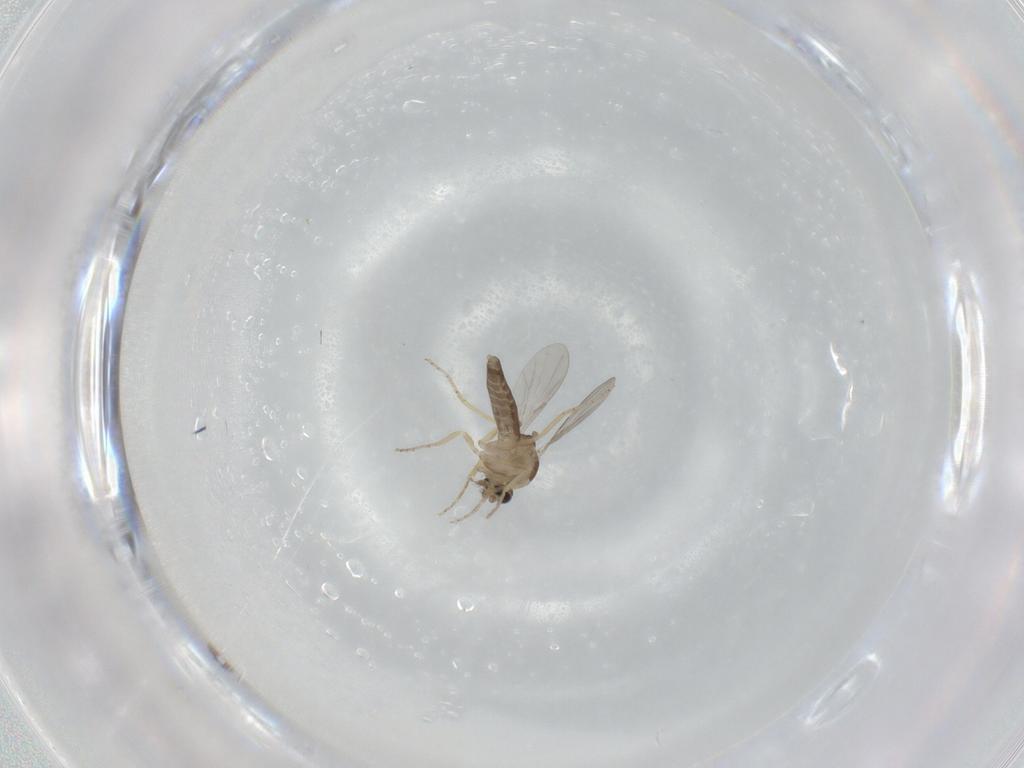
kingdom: Animalia
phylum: Arthropoda
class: Insecta
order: Diptera
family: Ceratopogonidae
